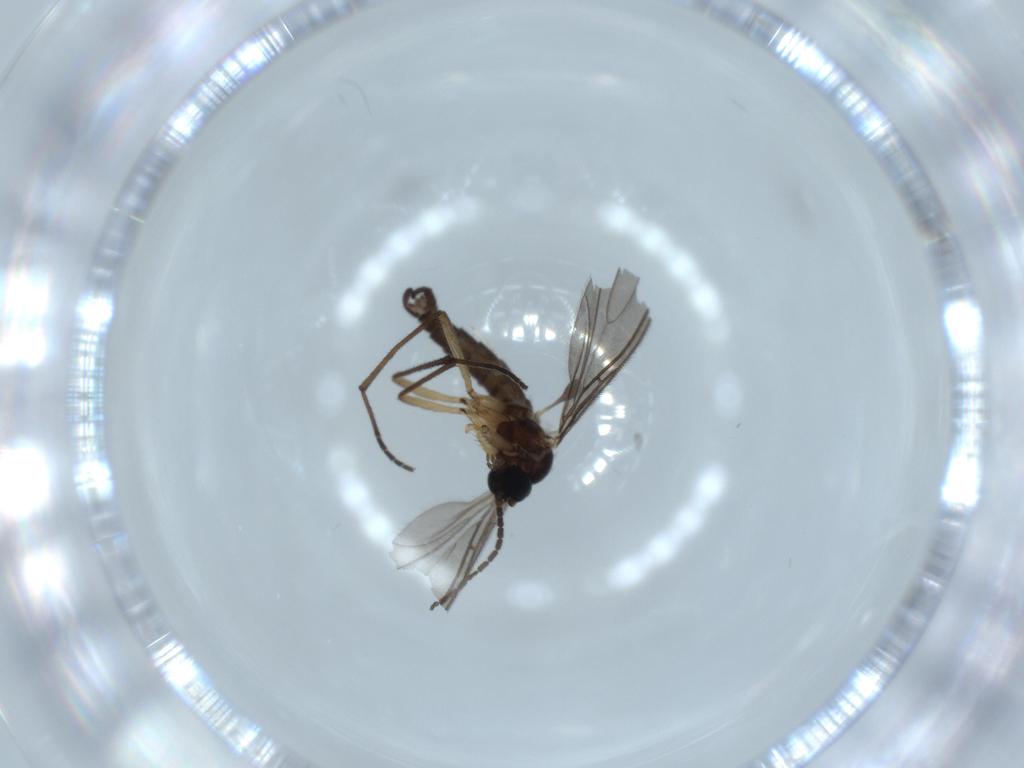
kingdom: Animalia
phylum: Arthropoda
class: Insecta
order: Diptera
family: Sciaridae
